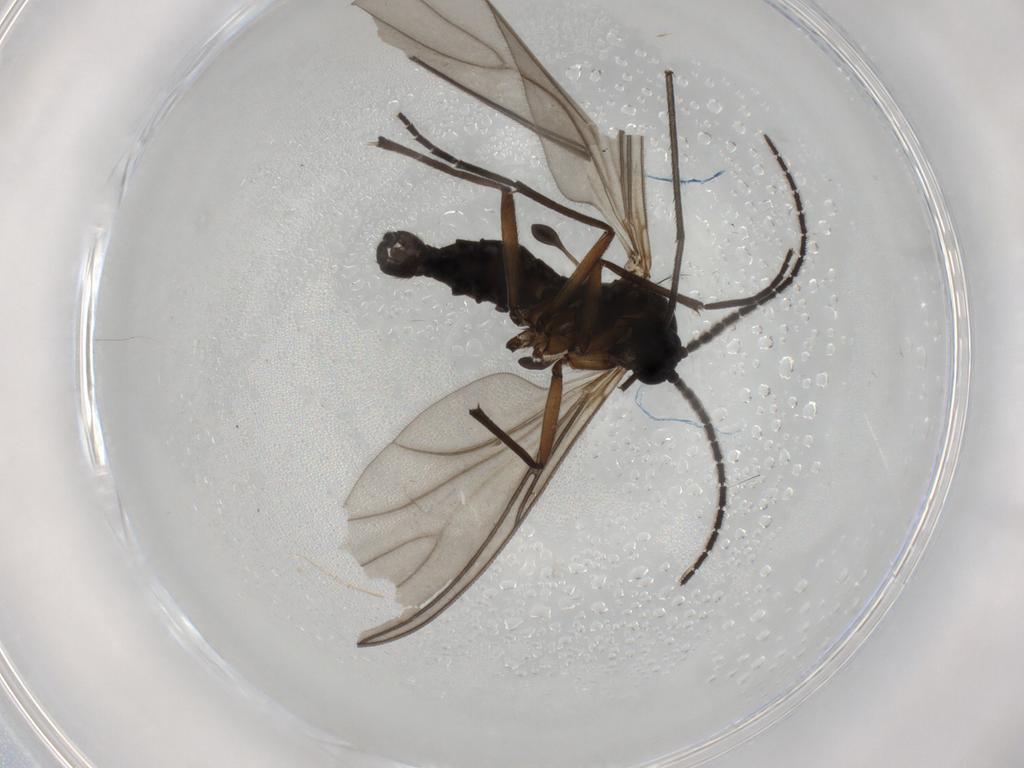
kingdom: Animalia
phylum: Arthropoda
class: Insecta
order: Diptera
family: Sciaridae
